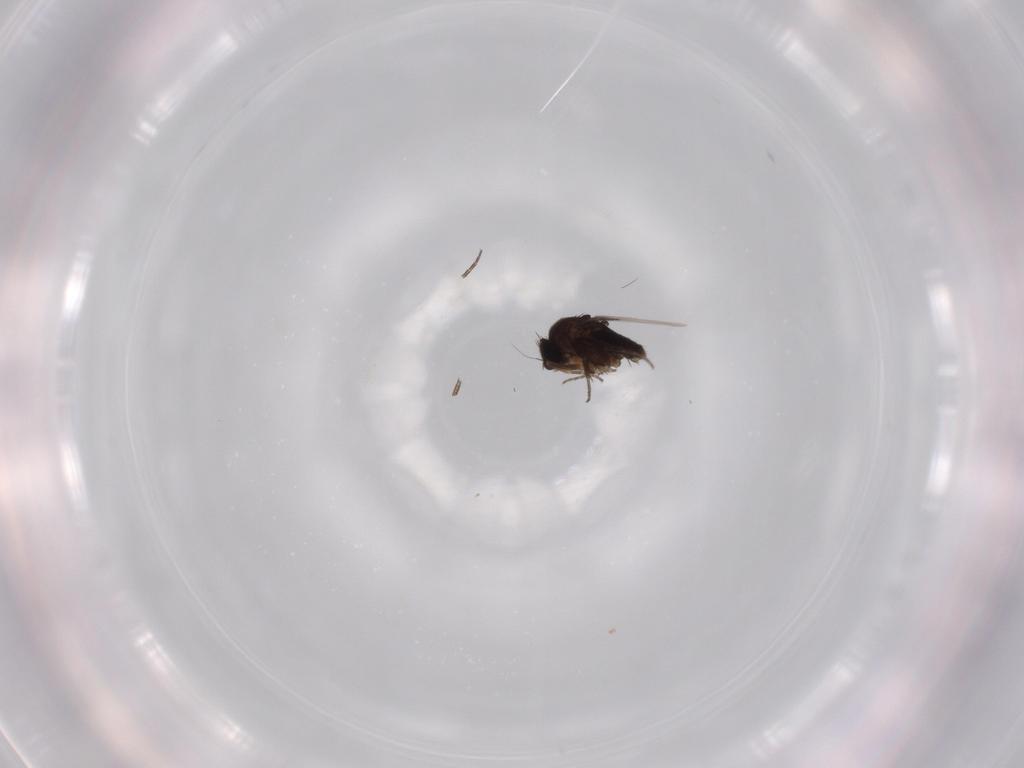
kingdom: Animalia
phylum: Arthropoda
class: Insecta
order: Diptera
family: Phoridae
